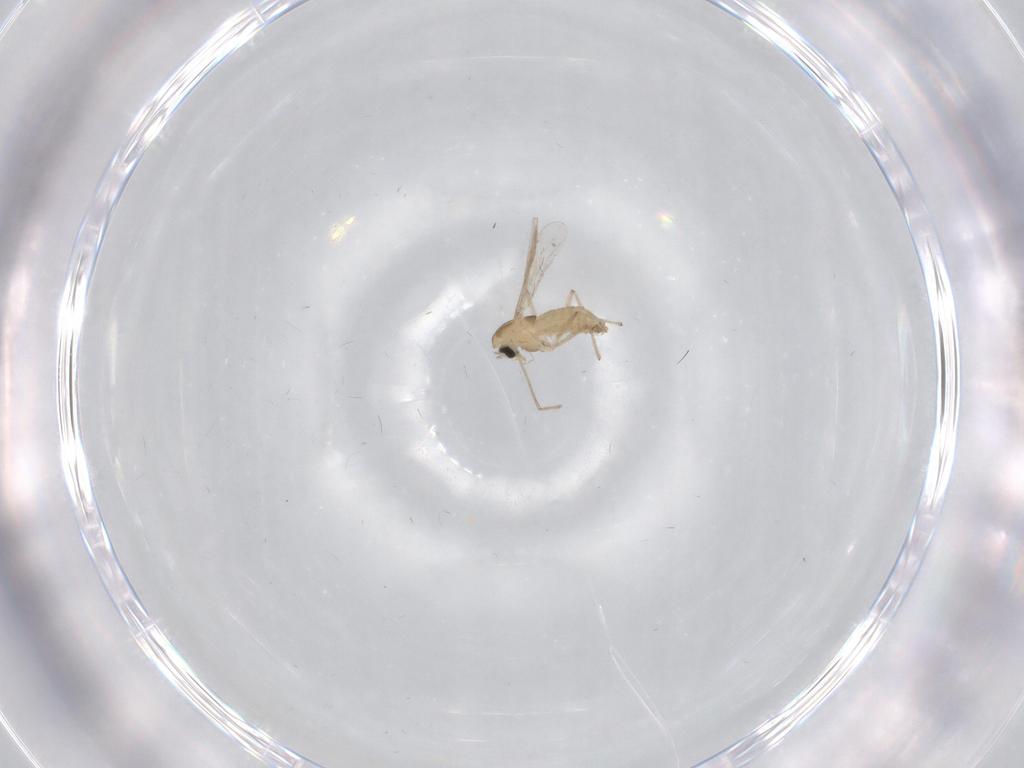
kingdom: Animalia
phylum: Arthropoda
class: Insecta
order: Diptera
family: Chironomidae
